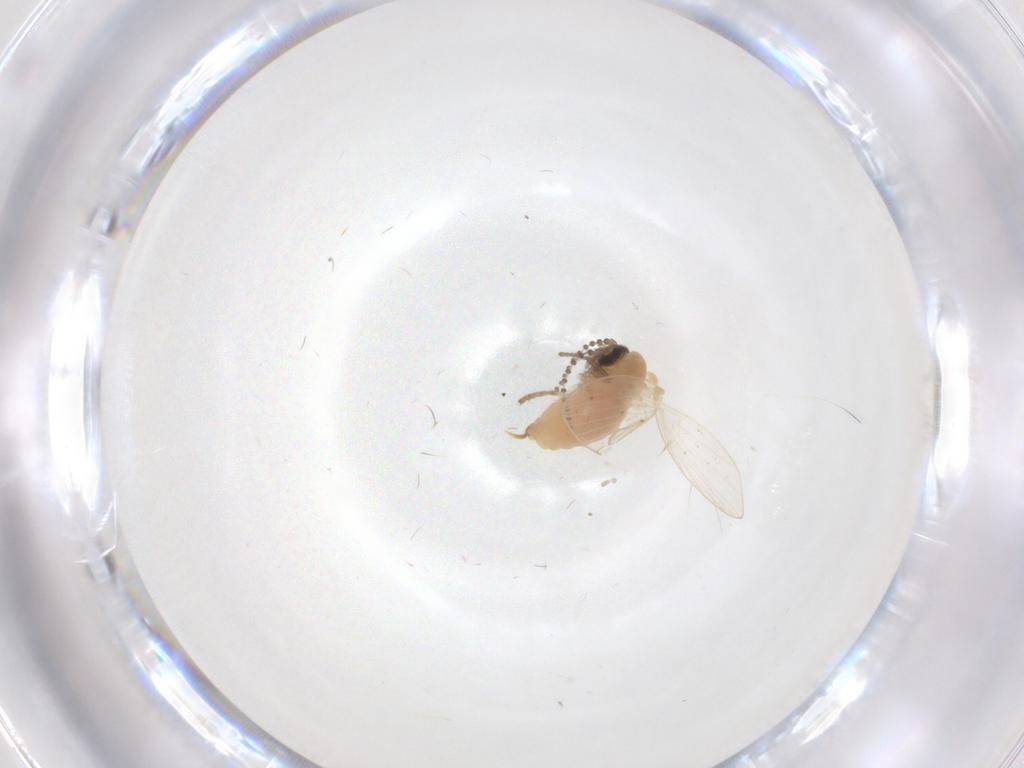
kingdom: Animalia
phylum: Arthropoda
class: Insecta
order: Diptera
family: Psychodidae
